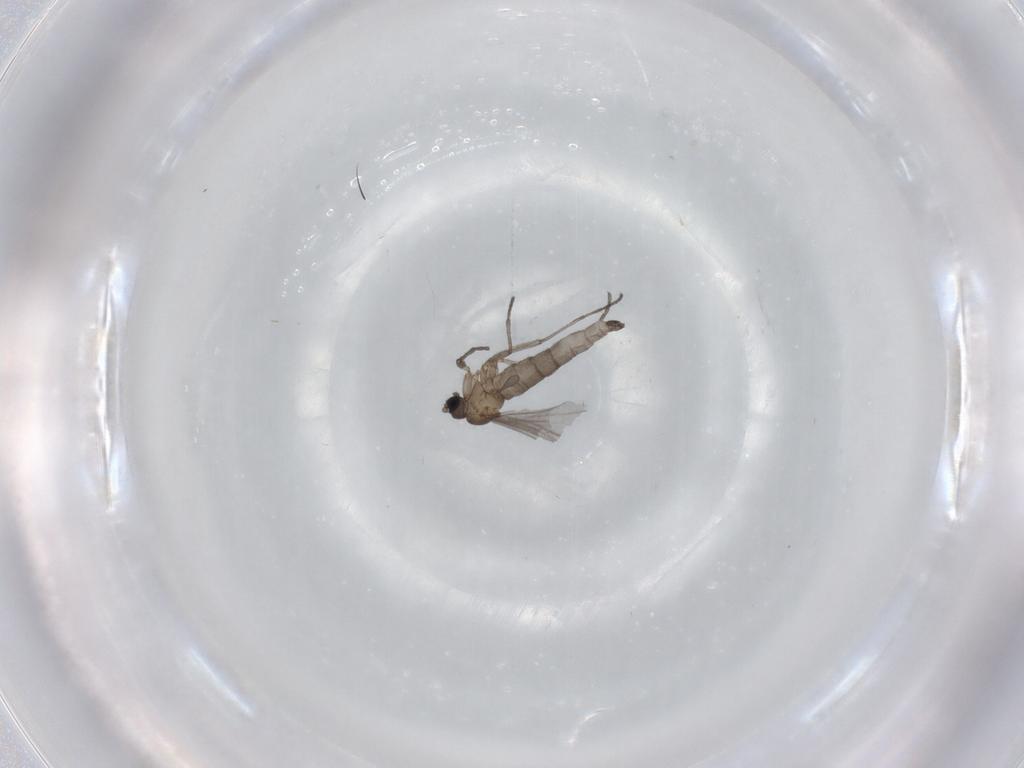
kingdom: Animalia
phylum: Arthropoda
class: Insecta
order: Diptera
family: Sciaridae
